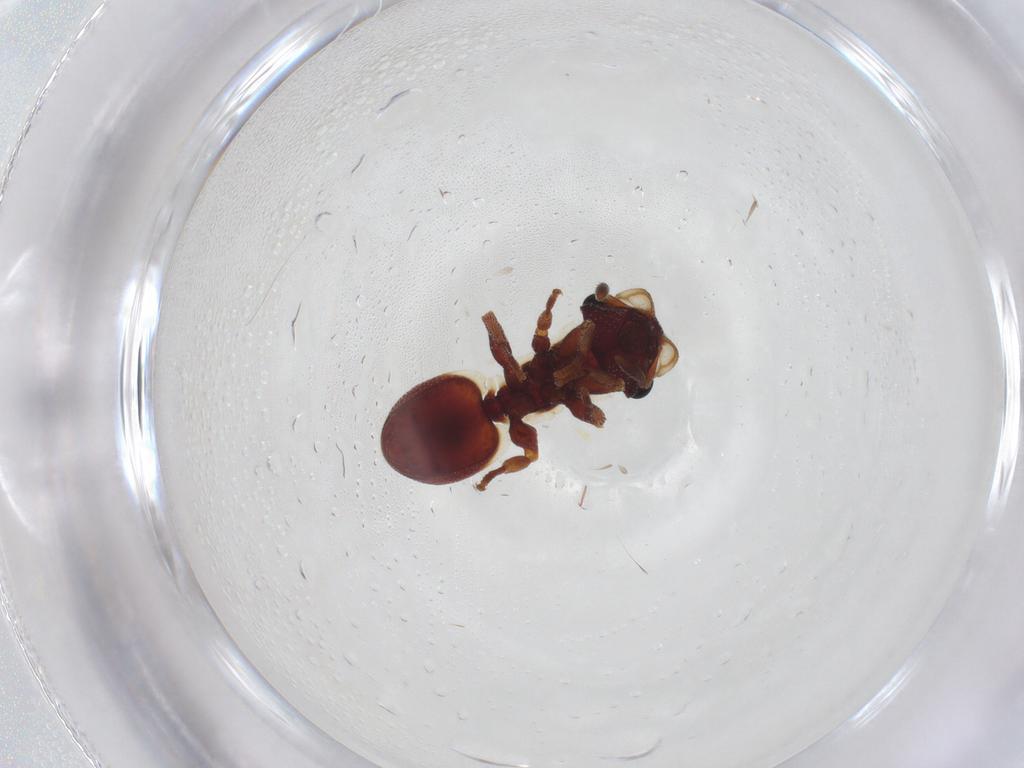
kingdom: Animalia
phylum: Arthropoda
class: Insecta
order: Hymenoptera
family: Formicidae
